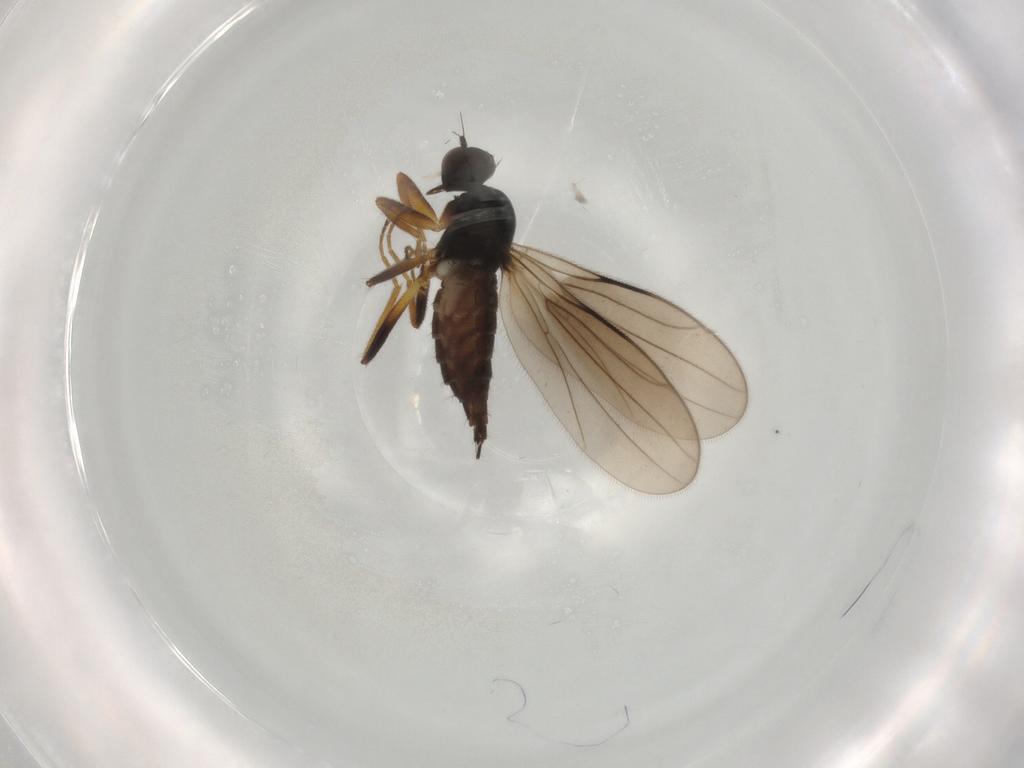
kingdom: Animalia
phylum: Arthropoda
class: Insecta
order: Diptera
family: Hybotidae
